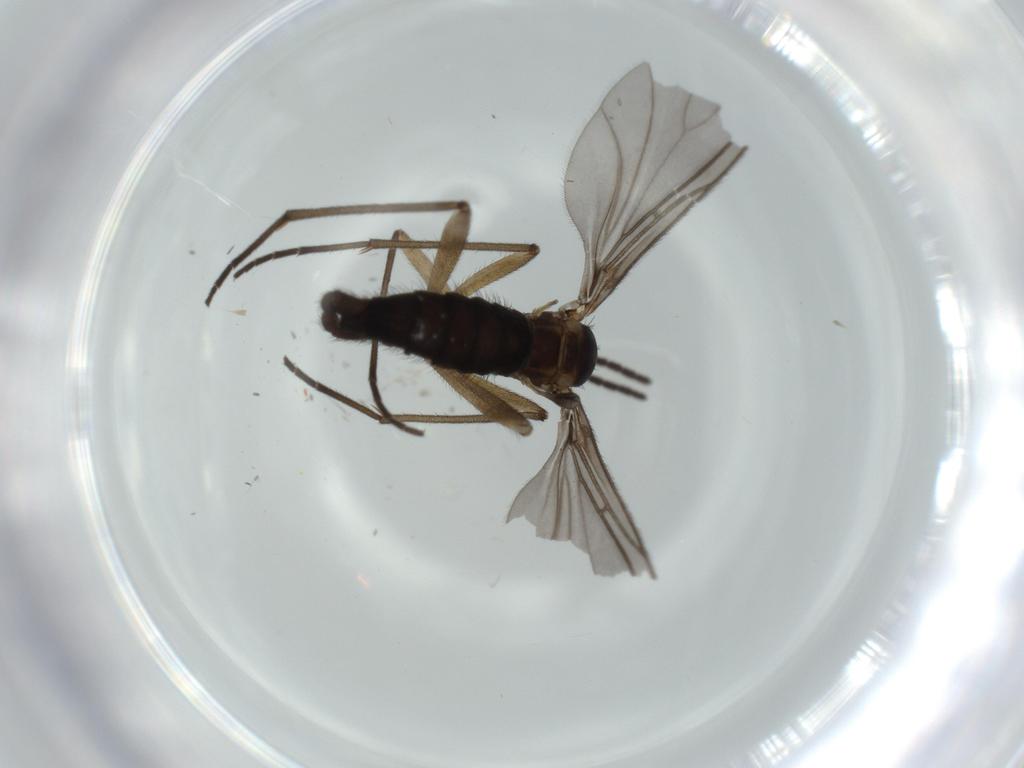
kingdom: Animalia
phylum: Arthropoda
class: Insecta
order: Diptera
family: Sciaridae
